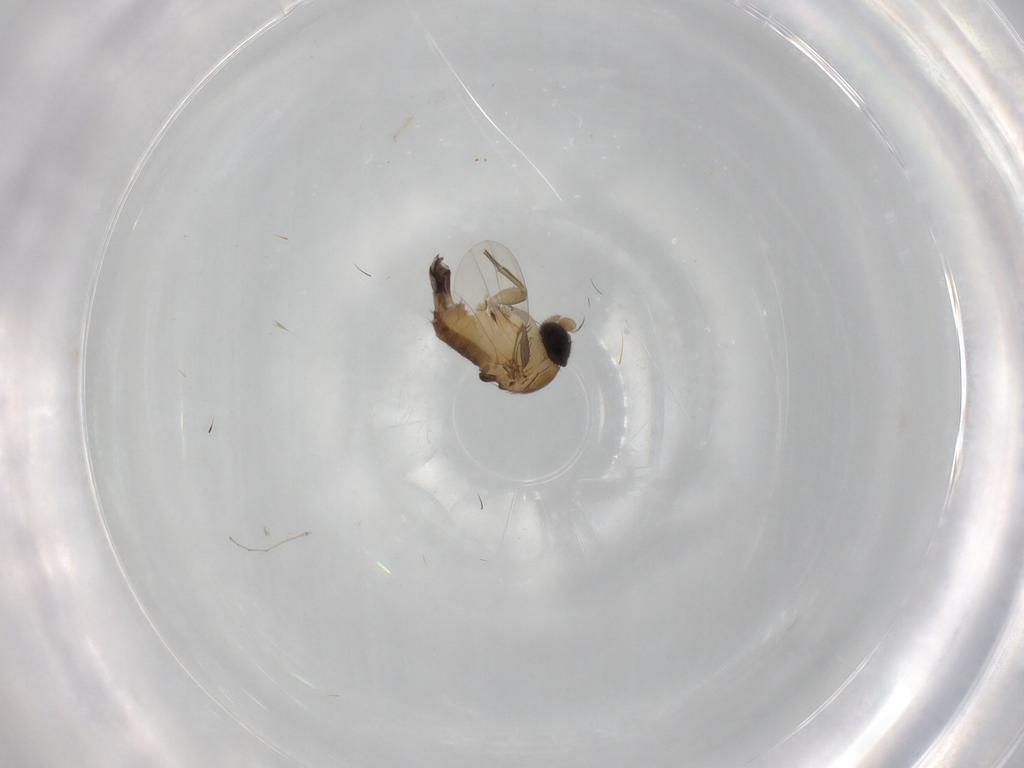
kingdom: Animalia
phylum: Arthropoda
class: Insecta
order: Diptera
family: Phoridae
